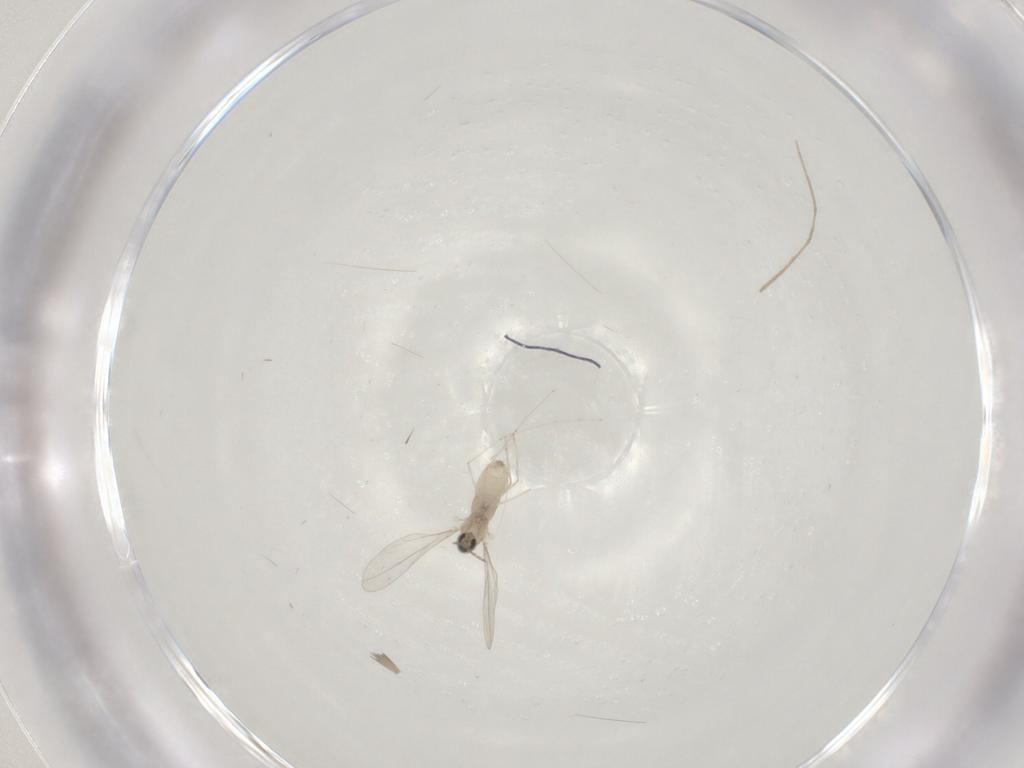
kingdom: Animalia
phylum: Arthropoda
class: Insecta
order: Diptera
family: Cecidomyiidae
